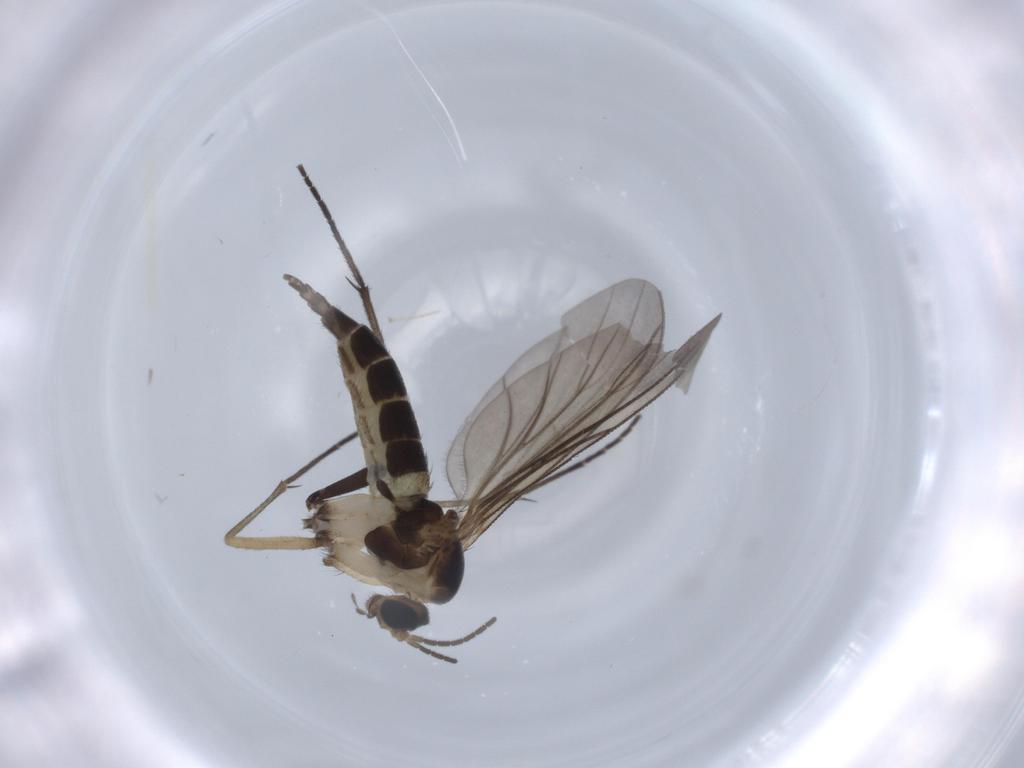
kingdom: Animalia
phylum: Arthropoda
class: Insecta
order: Diptera
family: Sciaridae
